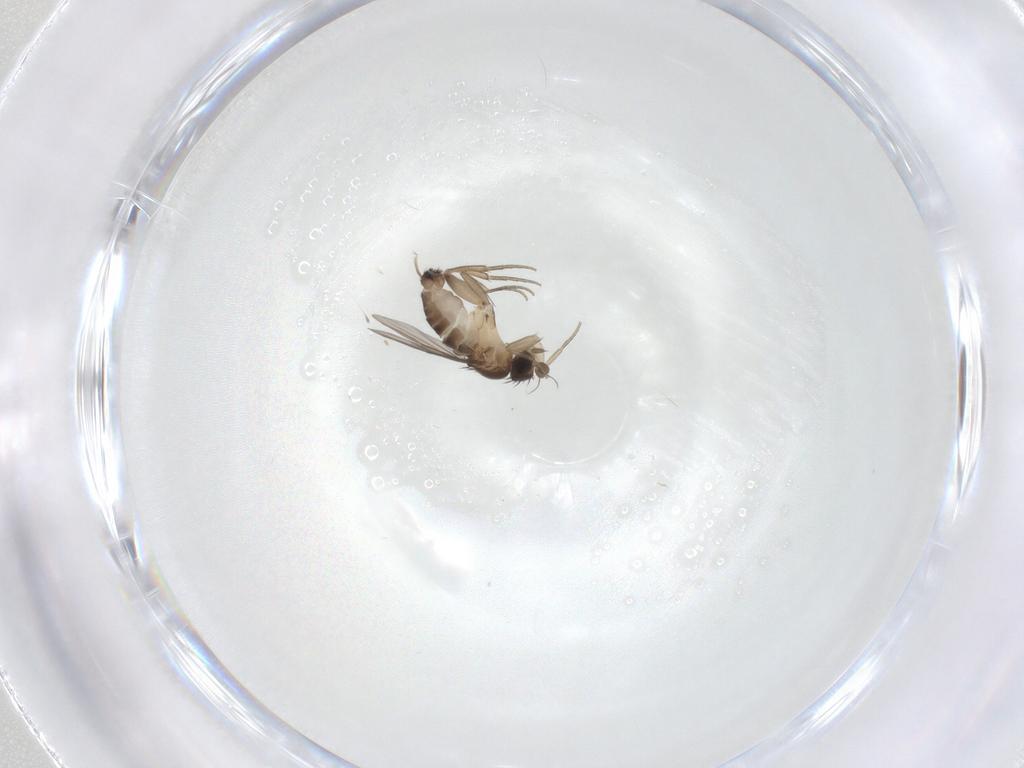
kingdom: Animalia
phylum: Arthropoda
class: Insecta
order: Diptera
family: Phoridae
